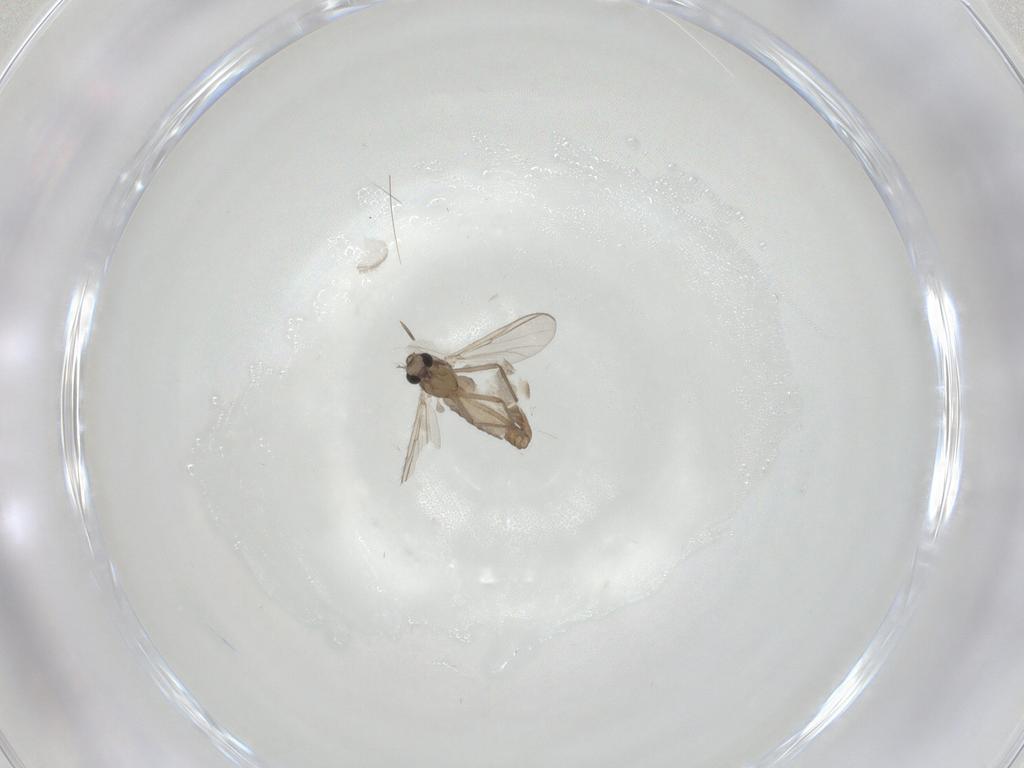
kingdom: Animalia
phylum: Arthropoda
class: Insecta
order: Diptera
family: Chironomidae
